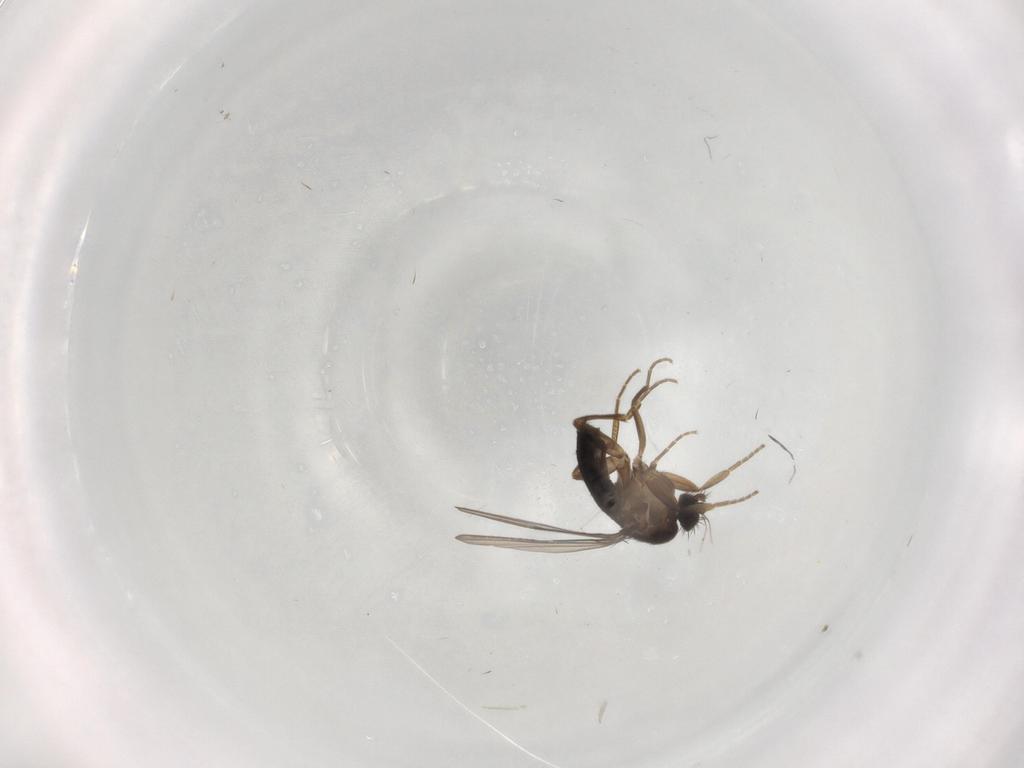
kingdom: Animalia
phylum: Arthropoda
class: Insecta
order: Diptera
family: Phoridae
